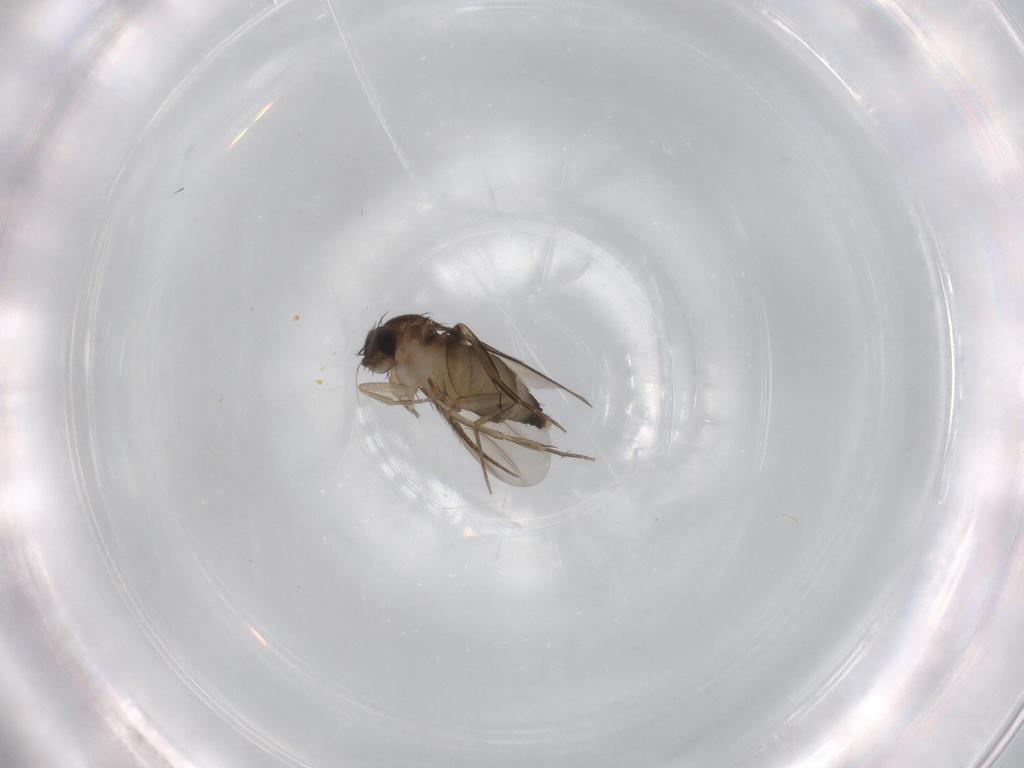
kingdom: Animalia
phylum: Arthropoda
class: Insecta
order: Diptera
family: Phoridae
